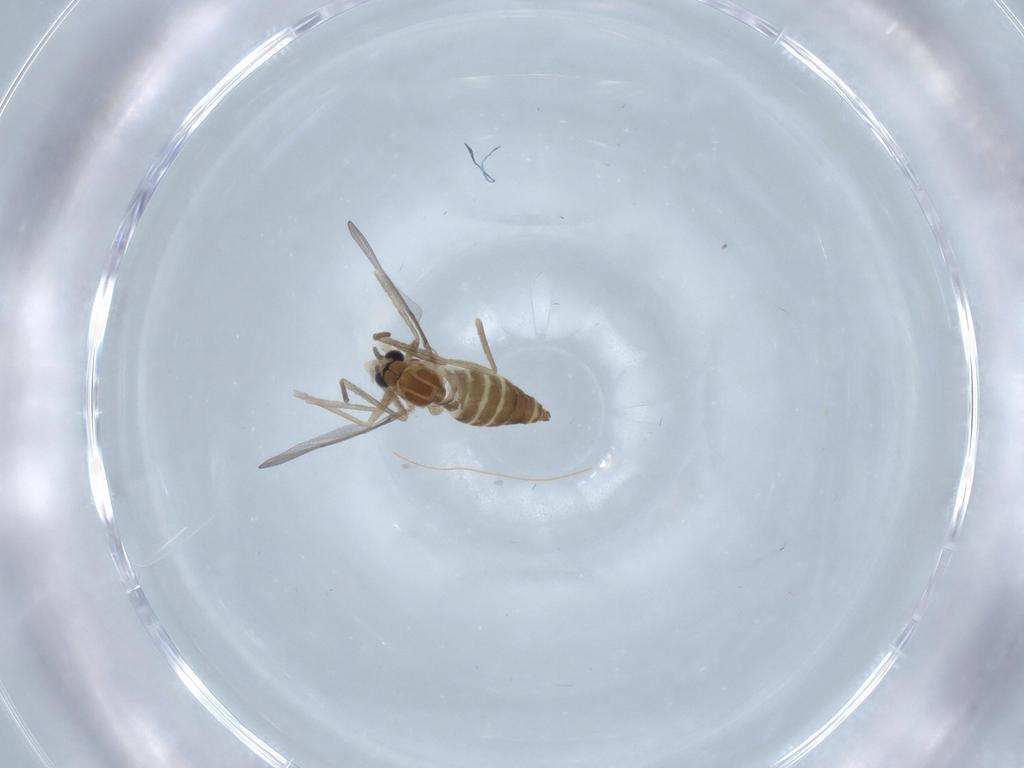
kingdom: Animalia
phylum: Arthropoda
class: Insecta
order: Diptera
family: Cecidomyiidae
